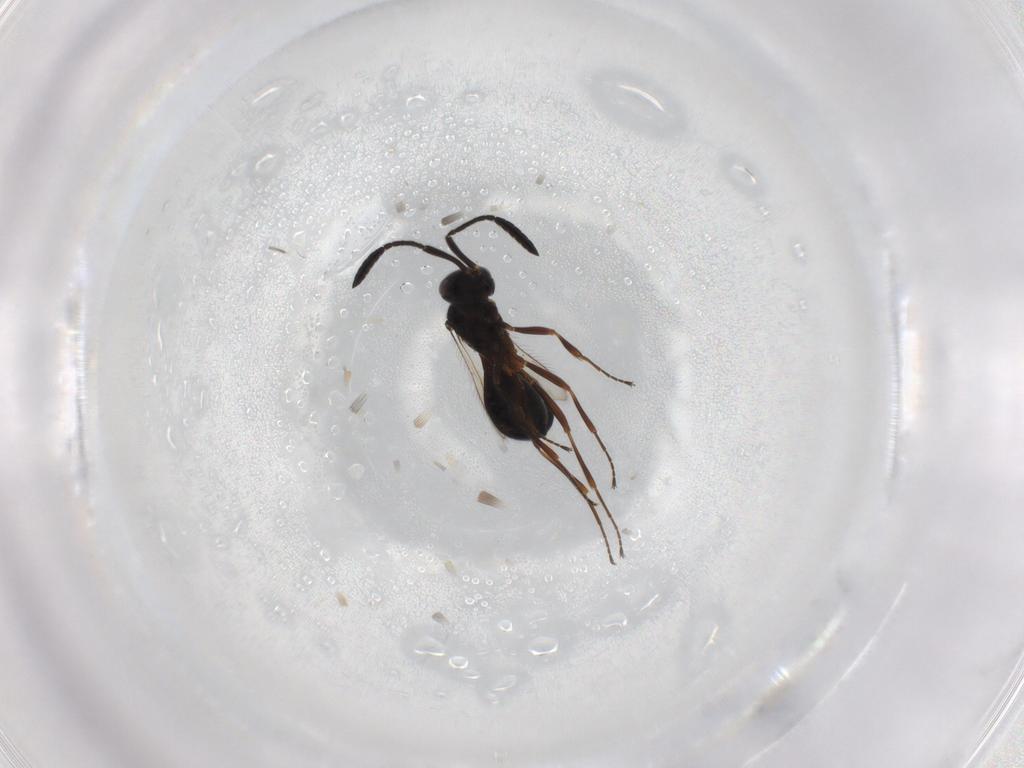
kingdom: Animalia
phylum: Arthropoda
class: Insecta
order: Hymenoptera
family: Scelionidae
